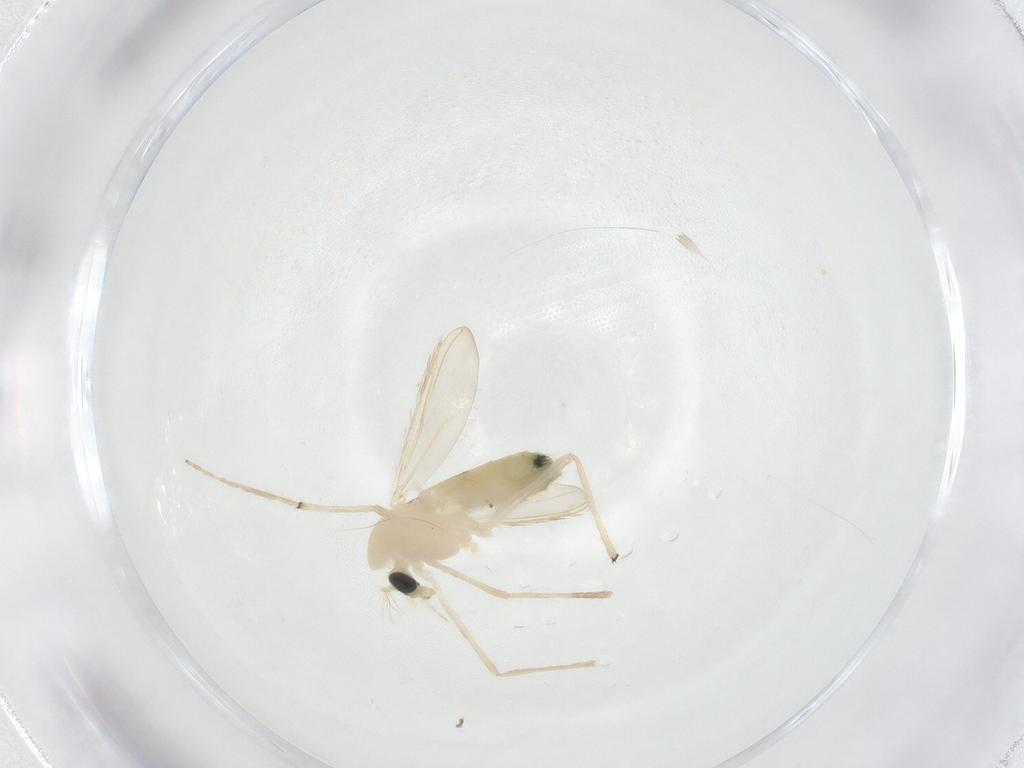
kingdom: Animalia
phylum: Arthropoda
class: Insecta
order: Diptera
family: Chironomidae
